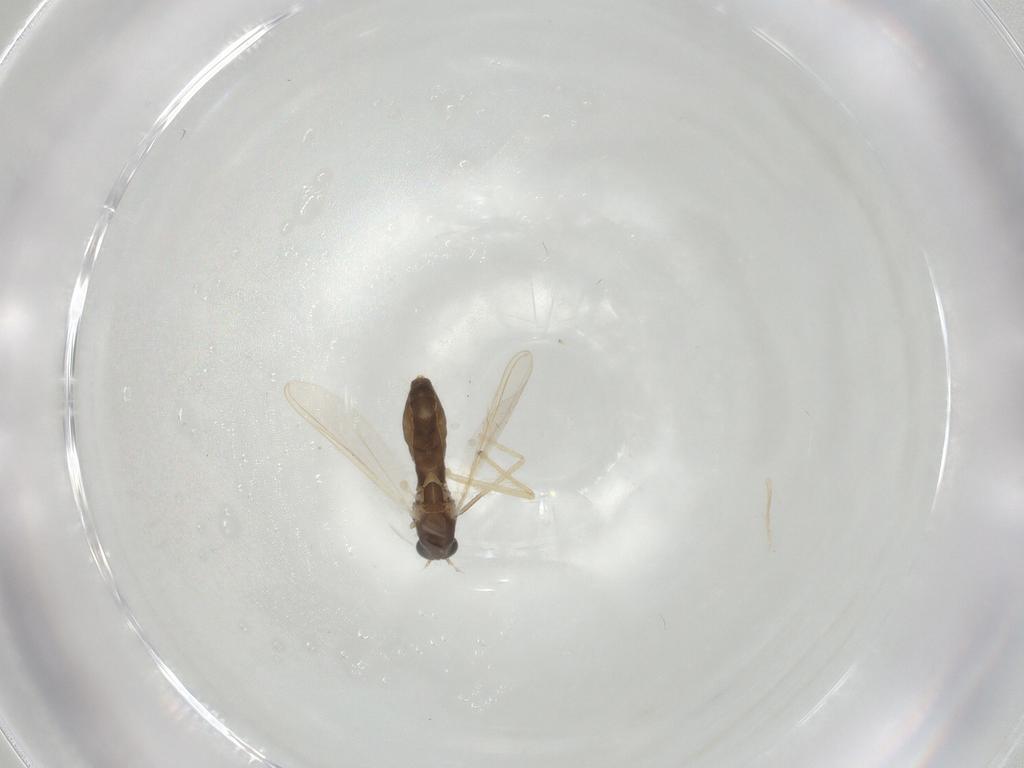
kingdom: Animalia
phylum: Arthropoda
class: Insecta
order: Diptera
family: Chironomidae
